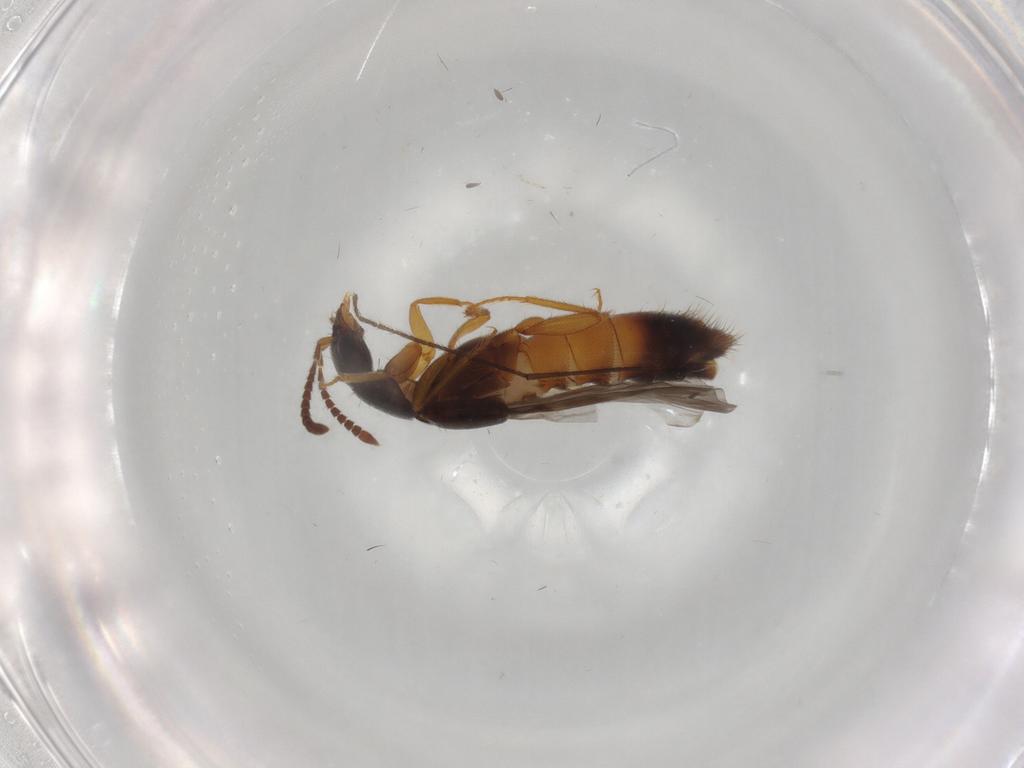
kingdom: Animalia
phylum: Arthropoda
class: Insecta
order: Coleoptera
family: Staphylinidae
